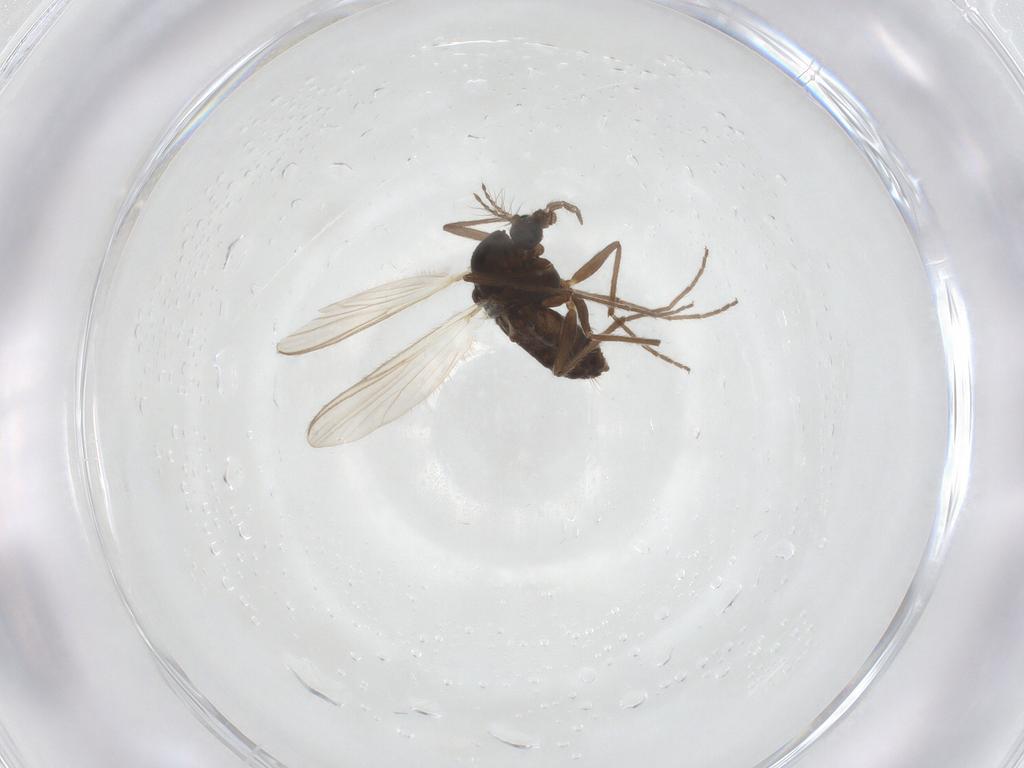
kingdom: Animalia
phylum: Arthropoda
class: Insecta
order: Diptera
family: Chironomidae
